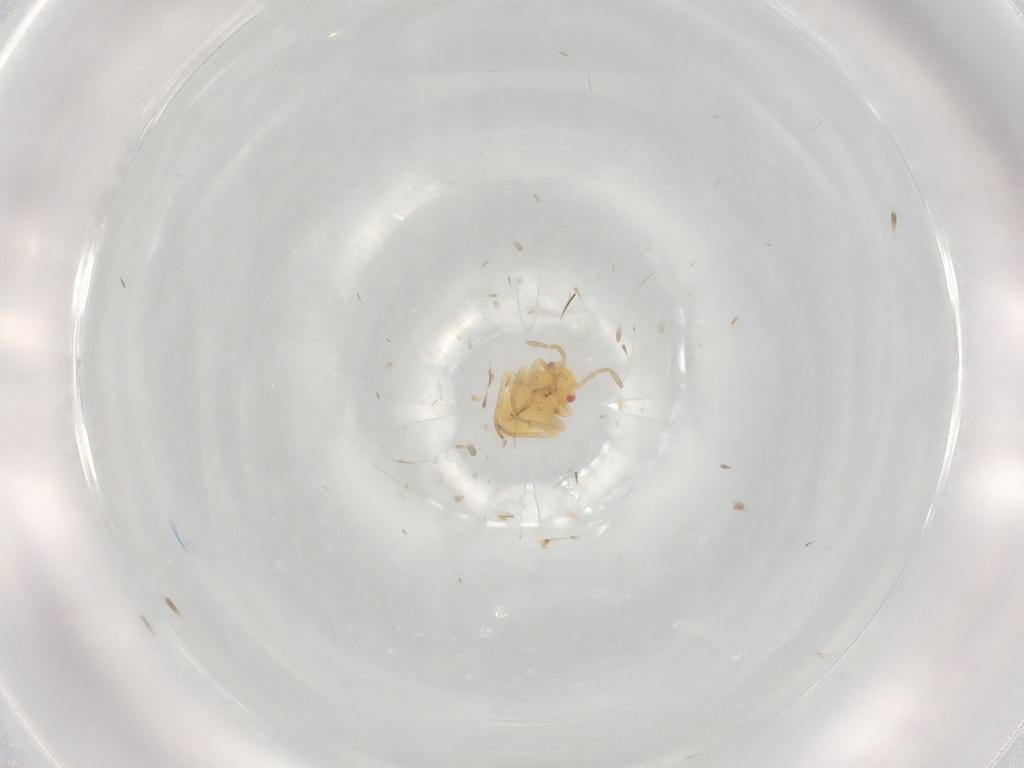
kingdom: Animalia
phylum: Arthropoda
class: Insecta
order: Hemiptera
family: Miridae
